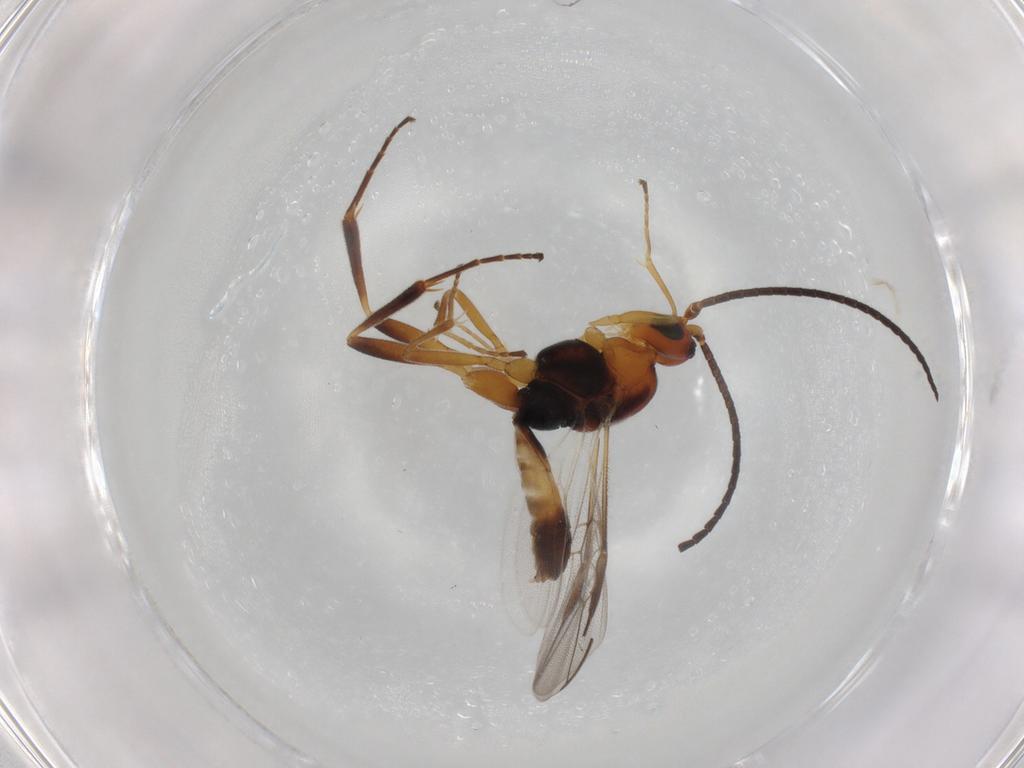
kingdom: Animalia
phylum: Arthropoda
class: Insecta
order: Hymenoptera
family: Braconidae
